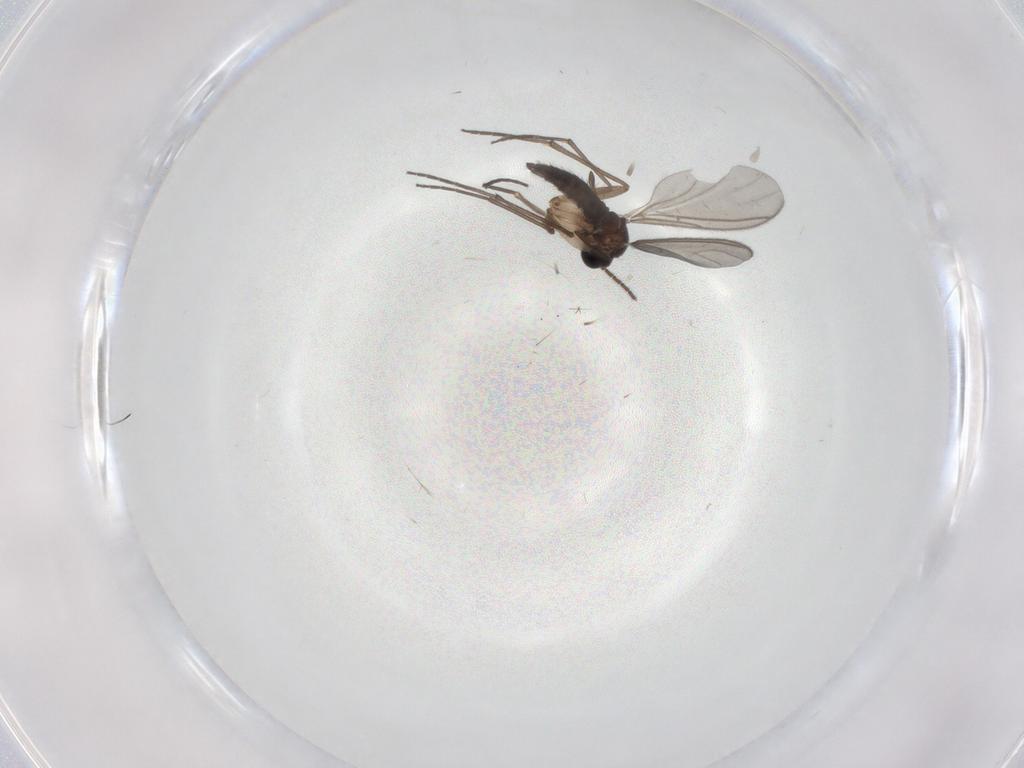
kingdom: Animalia
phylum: Arthropoda
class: Insecta
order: Diptera
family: Sciaridae
